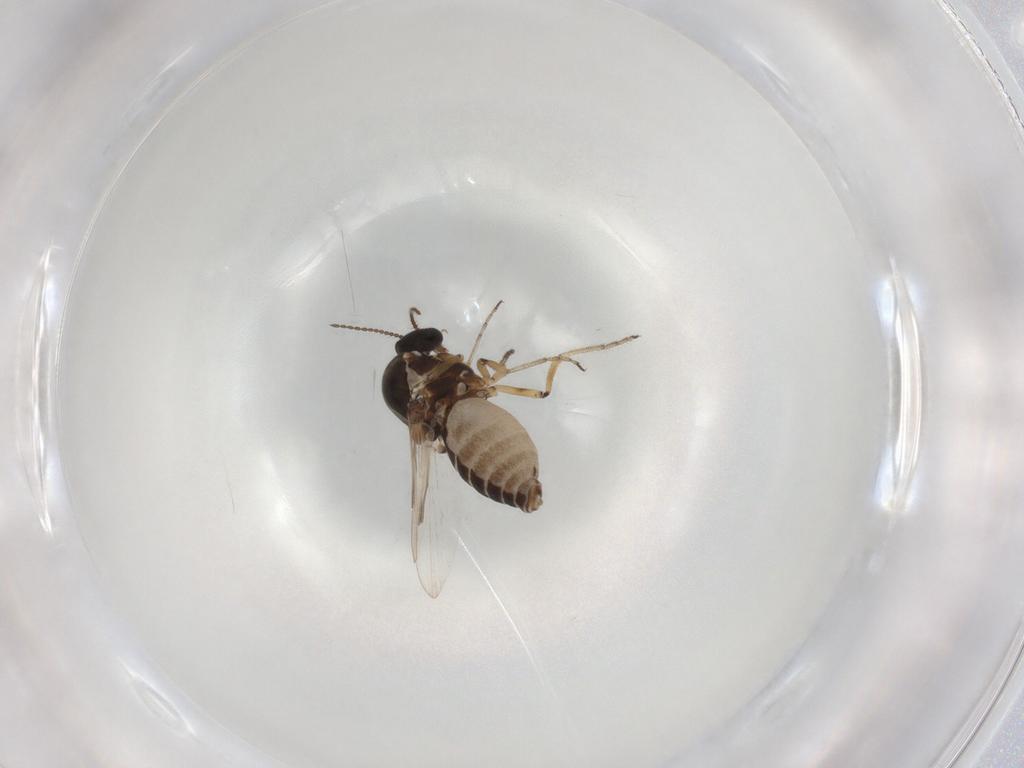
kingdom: Animalia
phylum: Arthropoda
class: Insecta
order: Diptera
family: Ceratopogonidae
